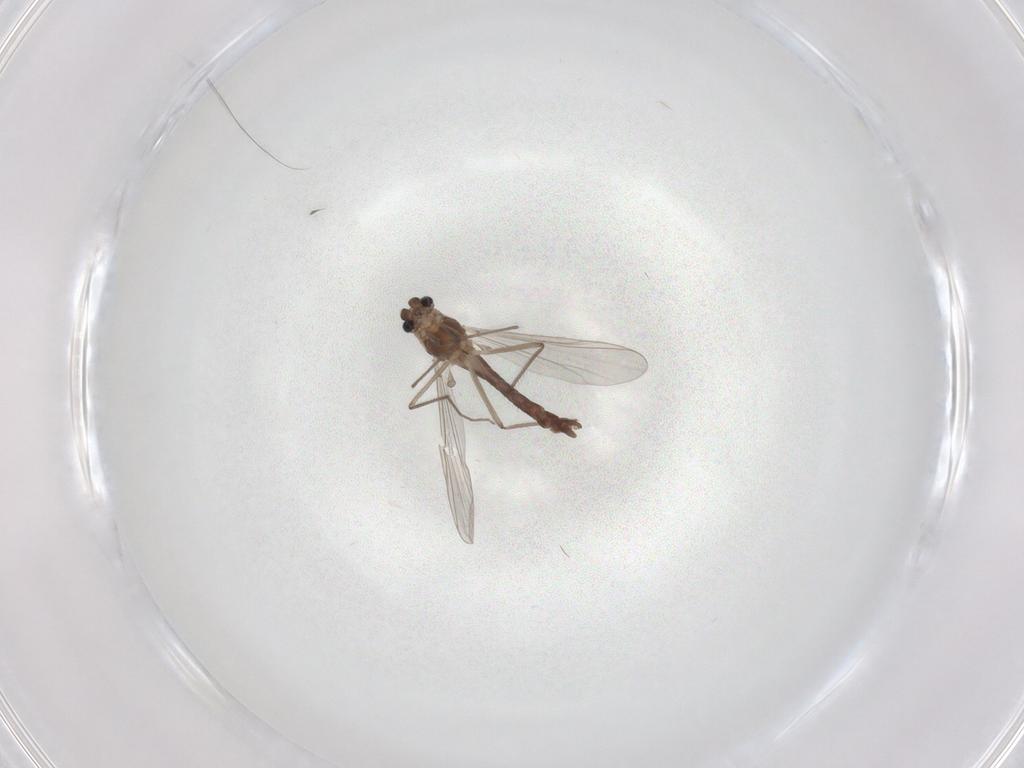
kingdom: Animalia
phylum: Arthropoda
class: Insecta
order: Diptera
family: Chironomidae
